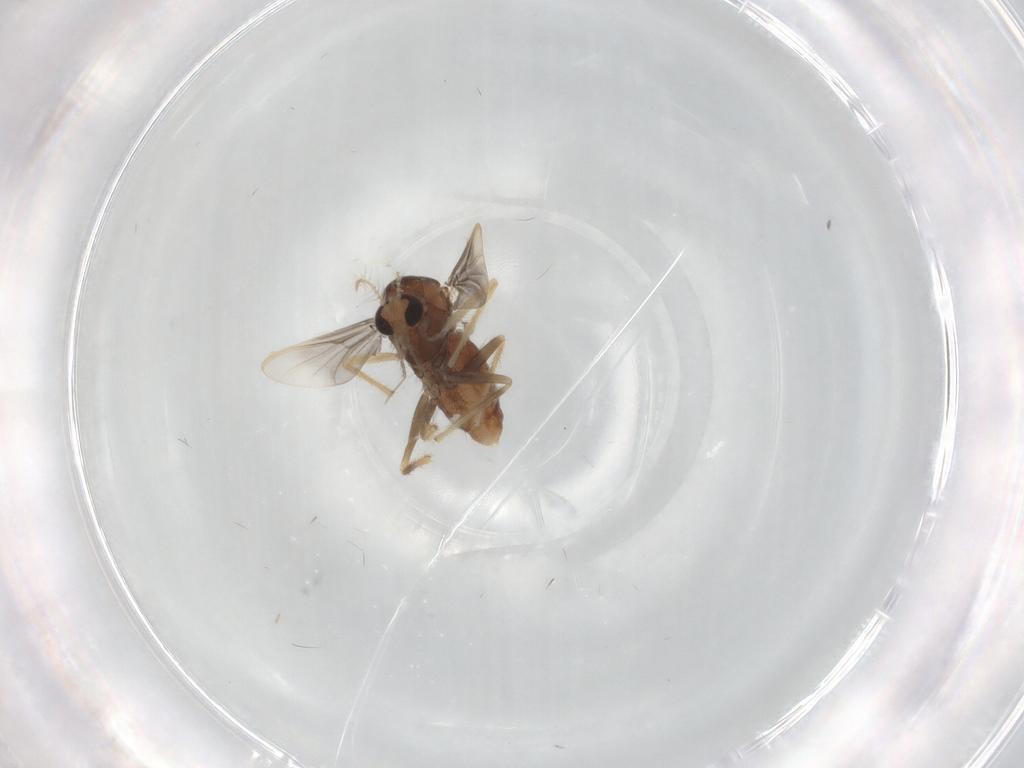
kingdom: Animalia
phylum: Arthropoda
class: Insecta
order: Diptera
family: Chironomidae
